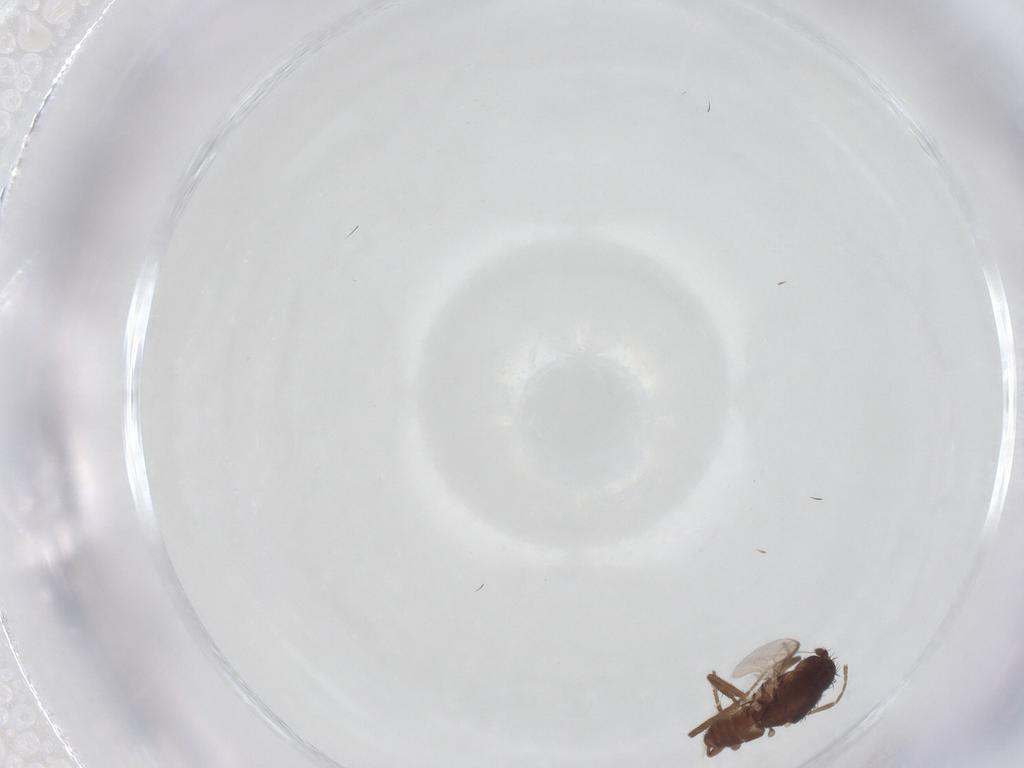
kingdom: Animalia
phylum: Arthropoda
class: Insecta
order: Diptera
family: Sphaeroceridae
